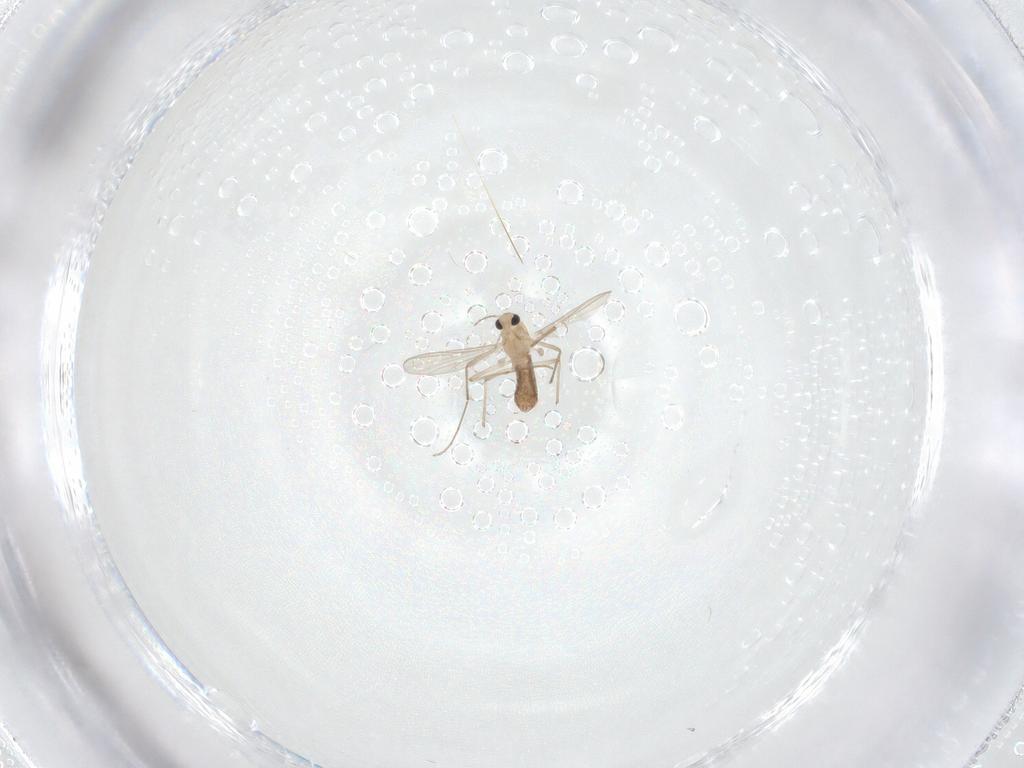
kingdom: Animalia
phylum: Arthropoda
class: Insecta
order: Diptera
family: Chironomidae
